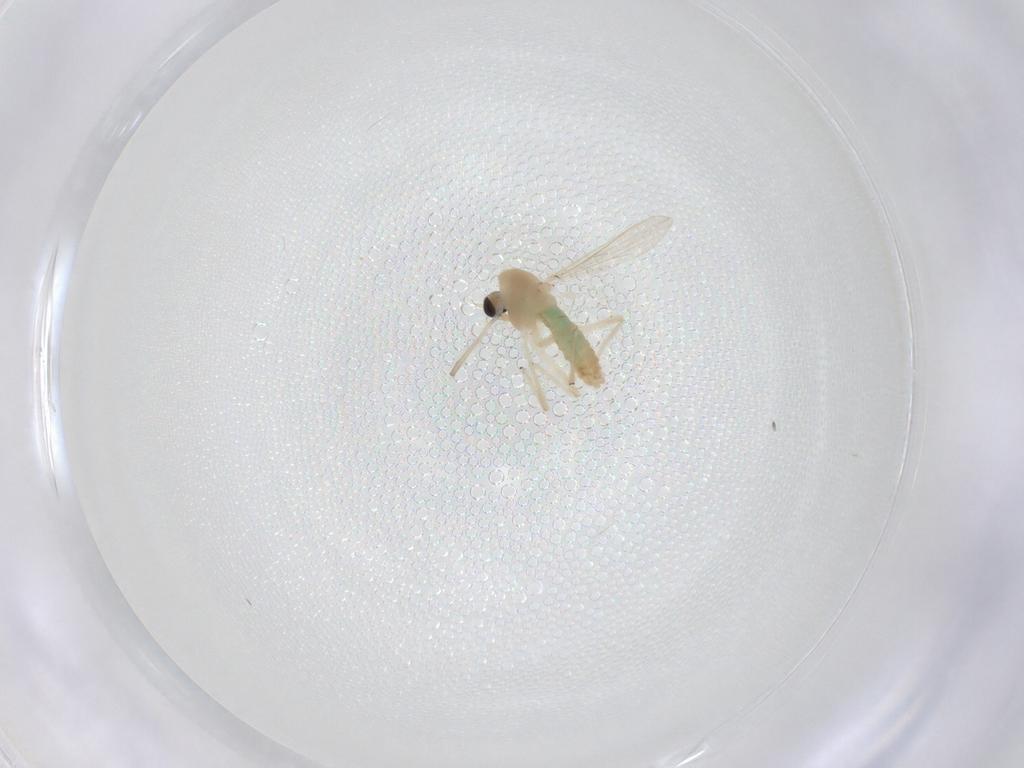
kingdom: Animalia
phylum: Arthropoda
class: Insecta
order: Diptera
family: Chironomidae
